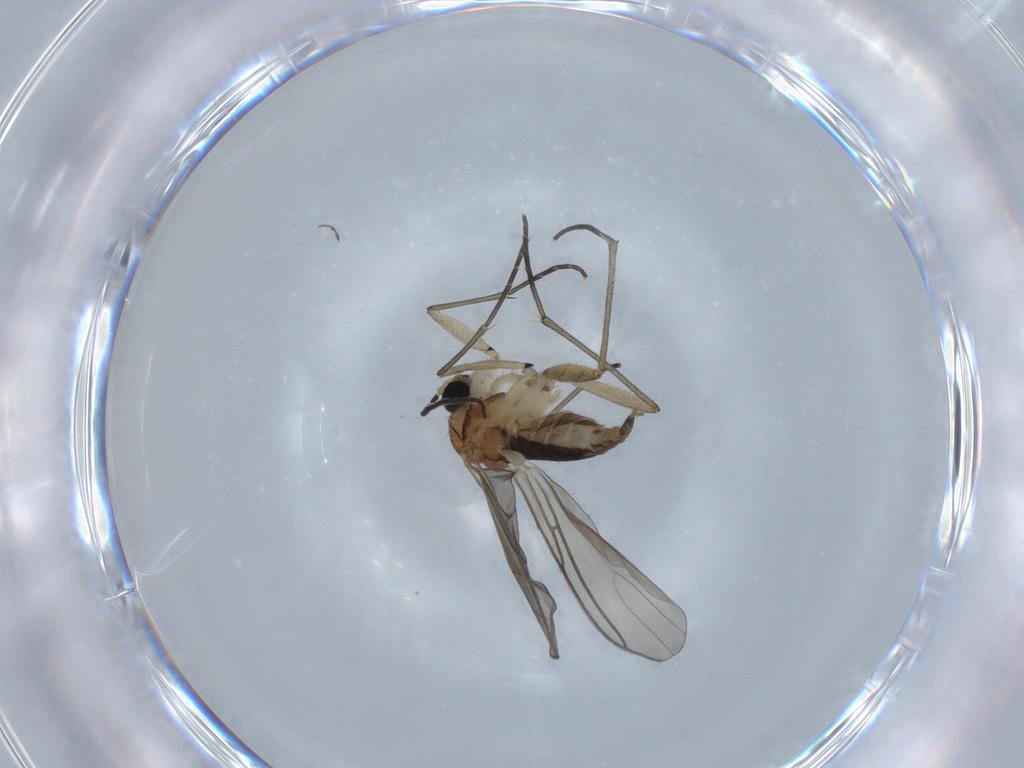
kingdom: Animalia
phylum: Arthropoda
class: Insecta
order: Diptera
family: Sciaridae
